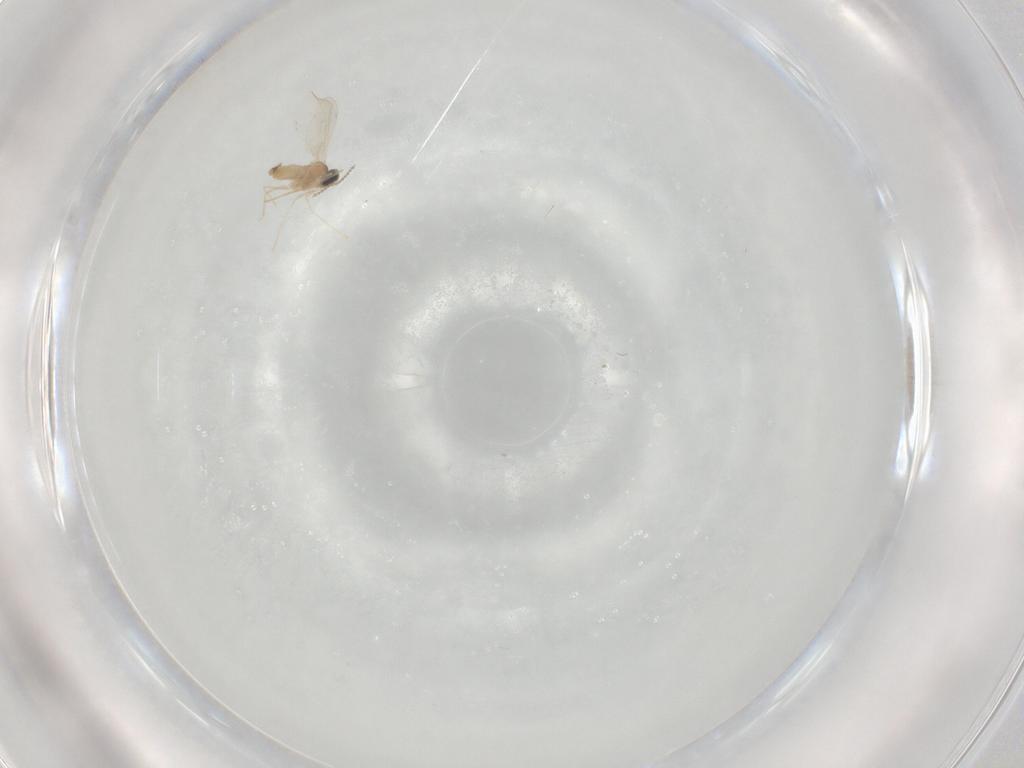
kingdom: Animalia
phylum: Arthropoda
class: Insecta
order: Diptera
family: Cecidomyiidae
